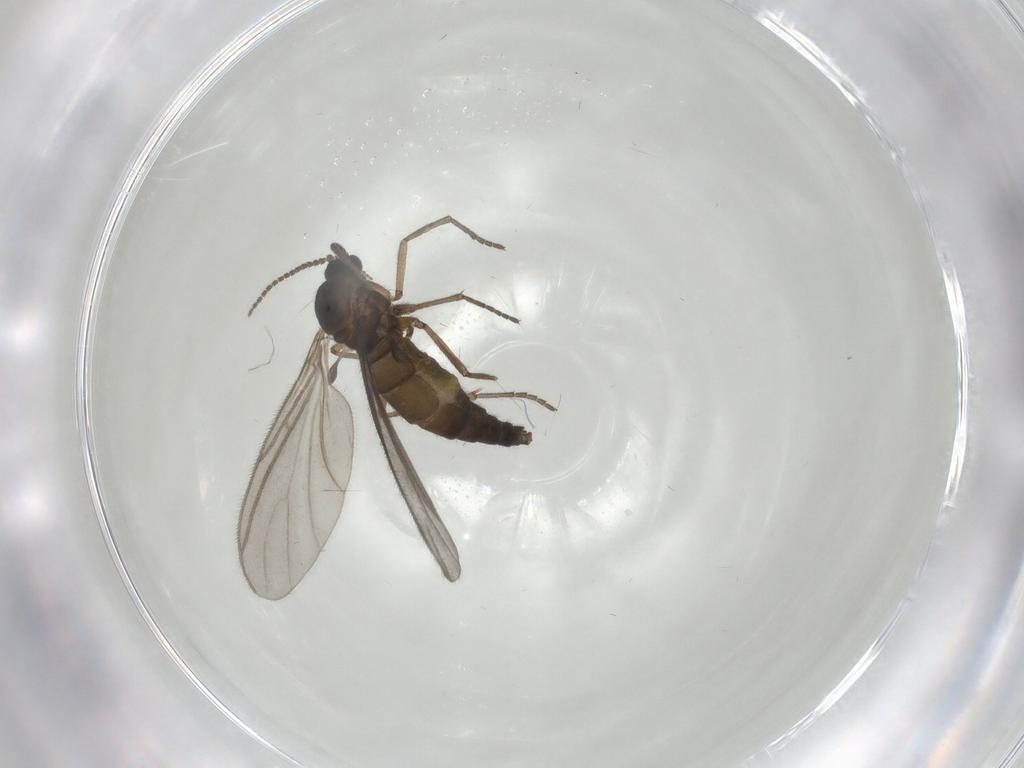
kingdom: Animalia
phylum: Arthropoda
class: Insecta
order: Diptera
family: Sciaridae
